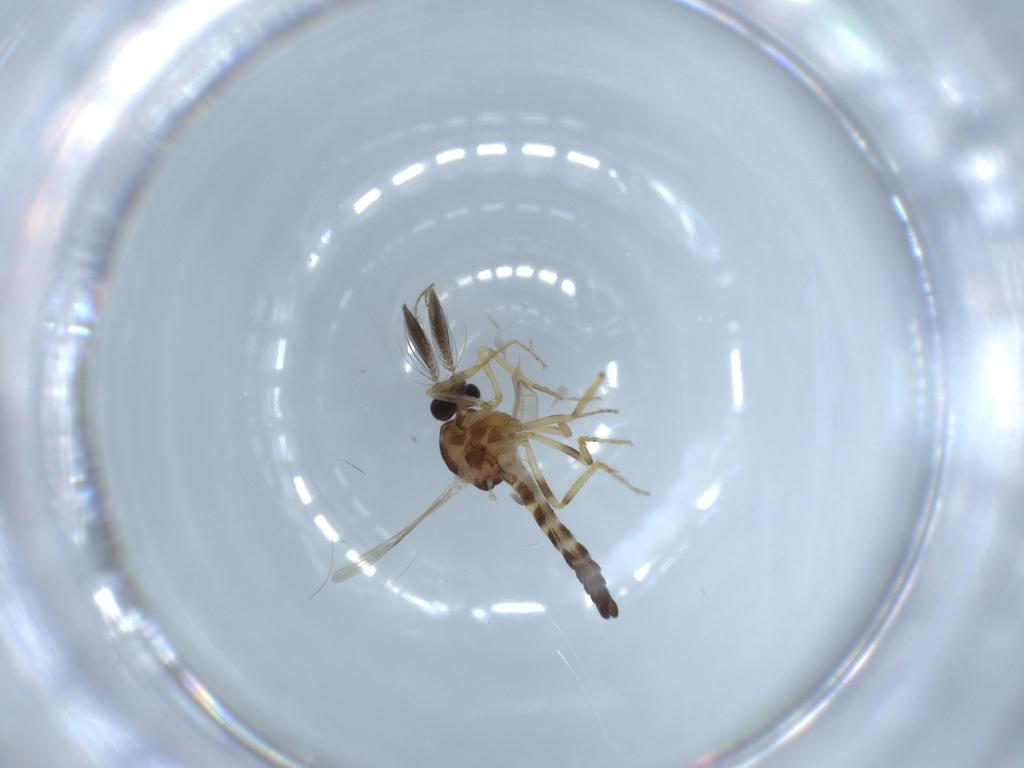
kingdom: Animalia
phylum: Arthropoda
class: Insecta
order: Diptera
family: Ceratopogonidae
